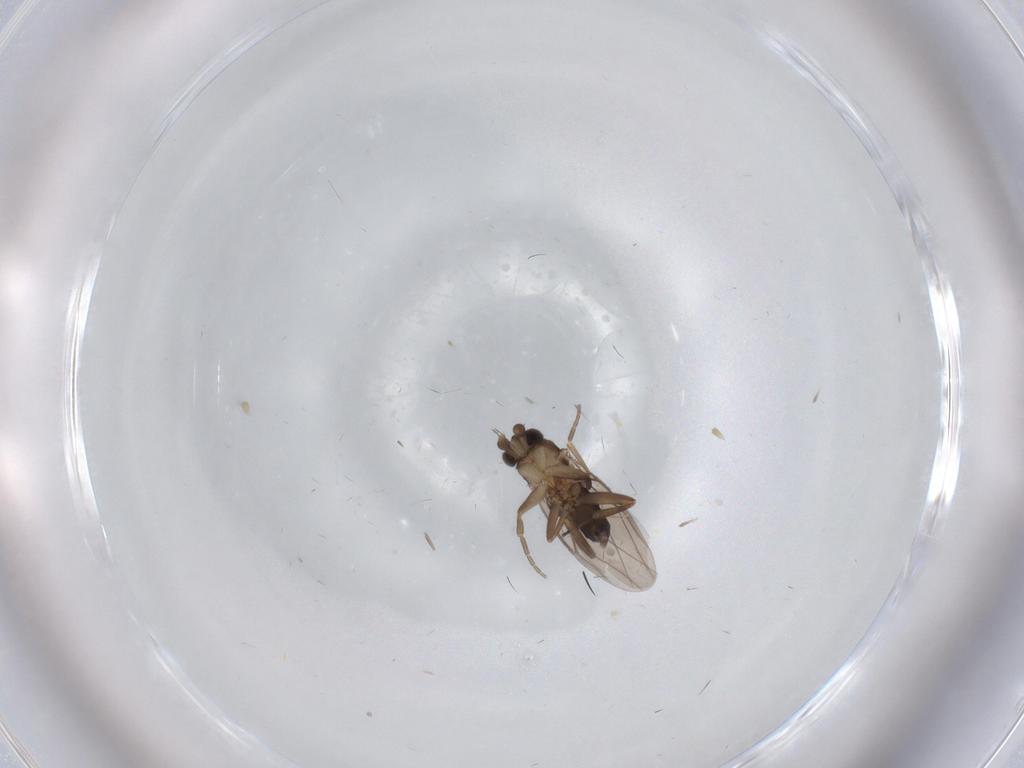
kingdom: Animalia
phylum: Arthropoda
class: Insecta
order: Diptera
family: Phoridae
